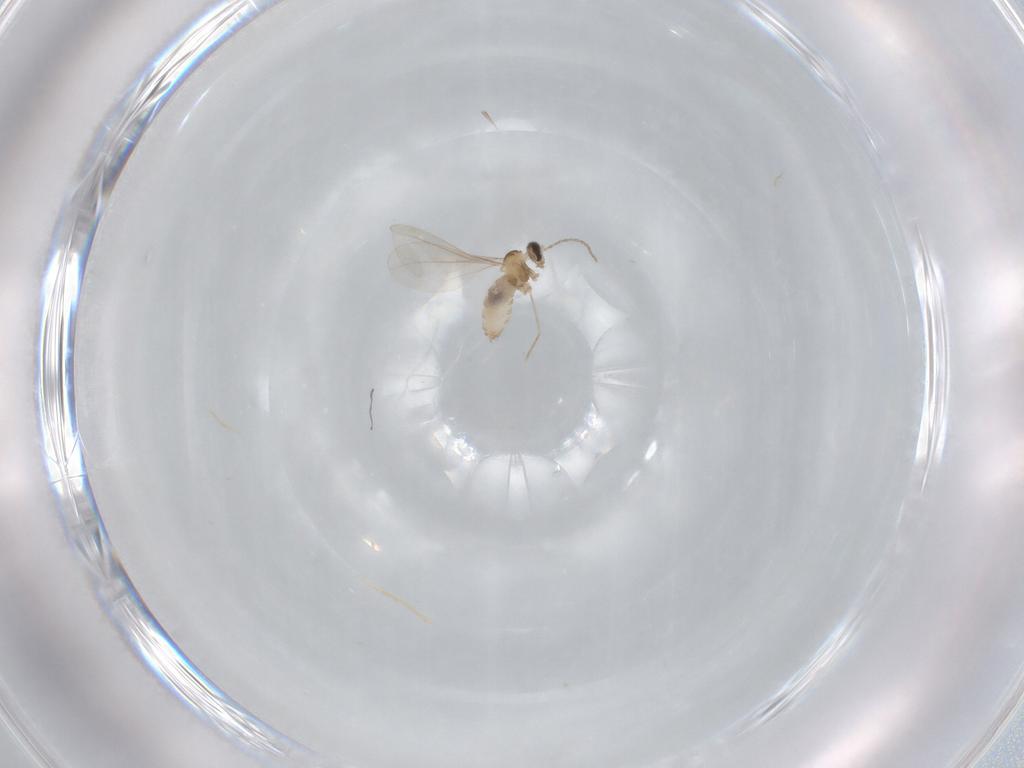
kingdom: Animalia
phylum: Arthropoda
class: Insecta
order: Diptera
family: Cecidomyiidae
